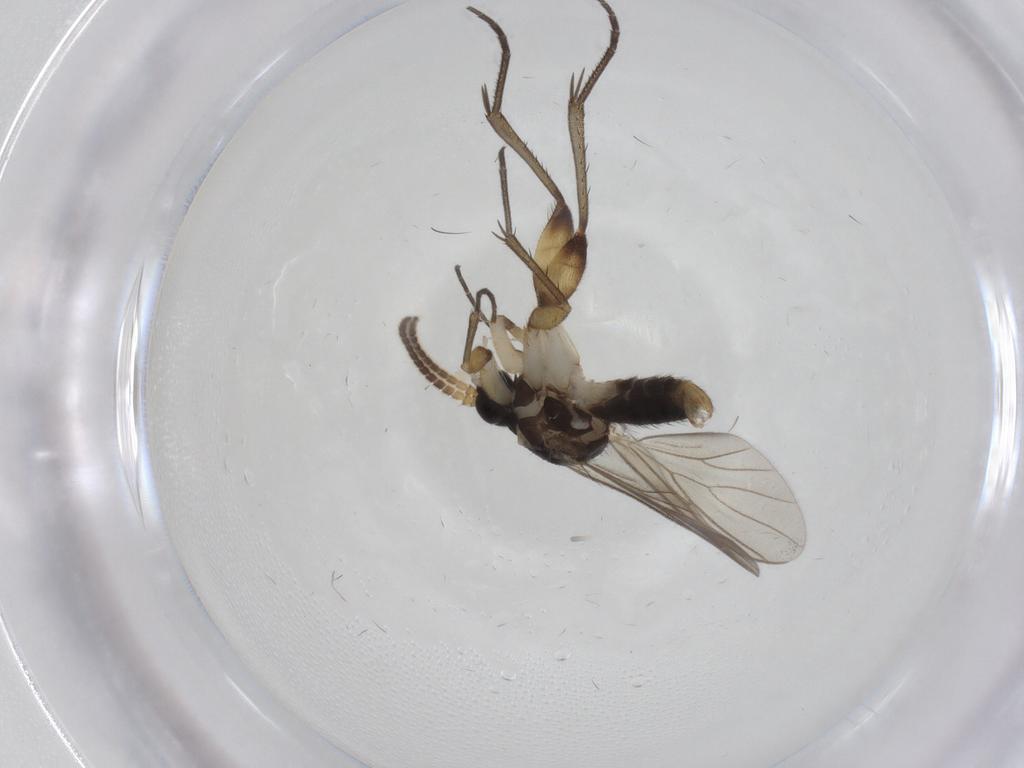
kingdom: Animalia
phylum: Arthropoda
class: Insecta
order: Diptera
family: Mycetophilidae
